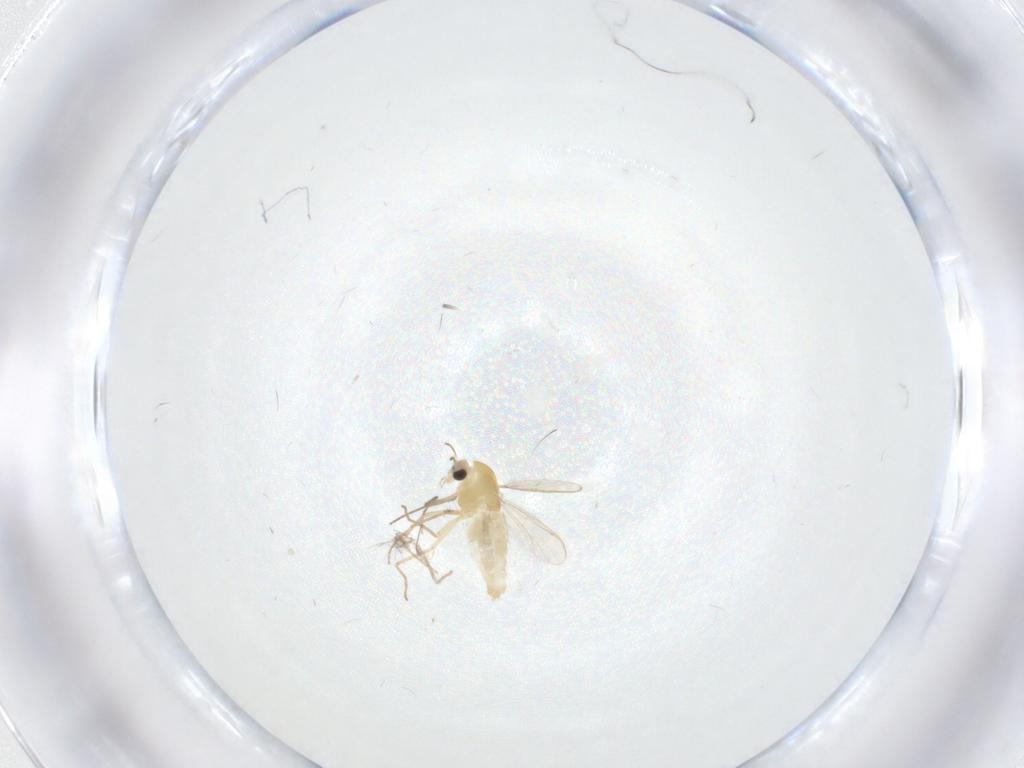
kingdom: Animalia
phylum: Arthropoda
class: Insecta
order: Diptera
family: Chironomidae
